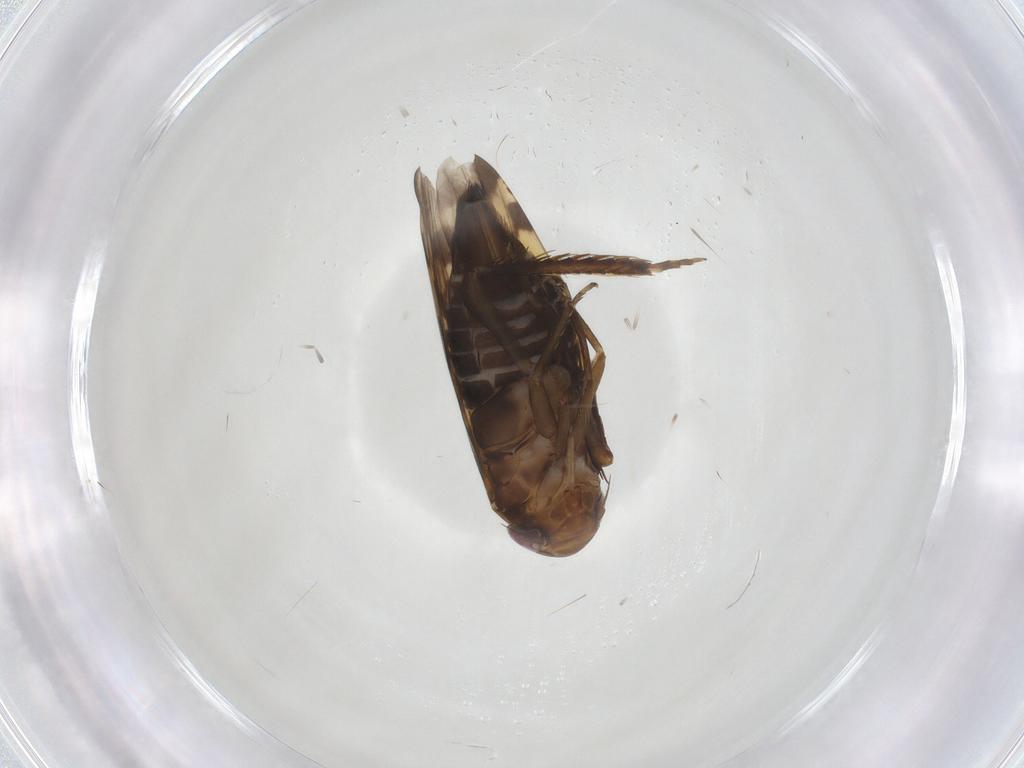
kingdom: Animalia
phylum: Arthropoda
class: Insecta
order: Hemiptera
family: Cicadellidae
